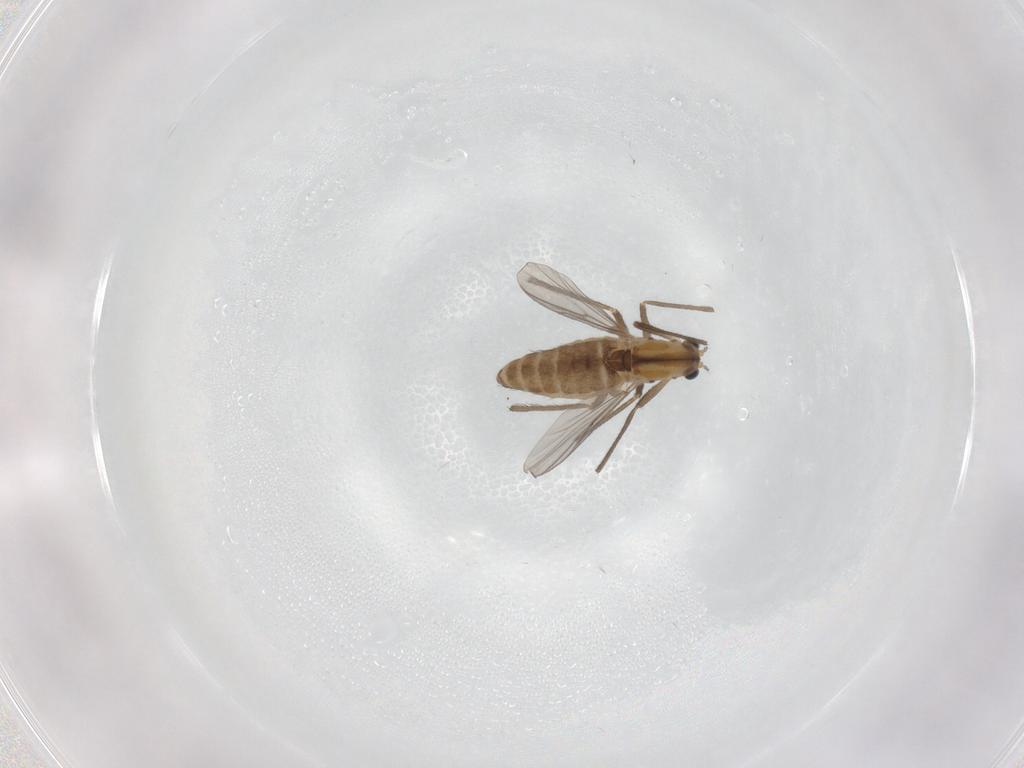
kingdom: Animalia
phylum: Arthropoda
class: Insecta
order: Diptera
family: Chironomidae
